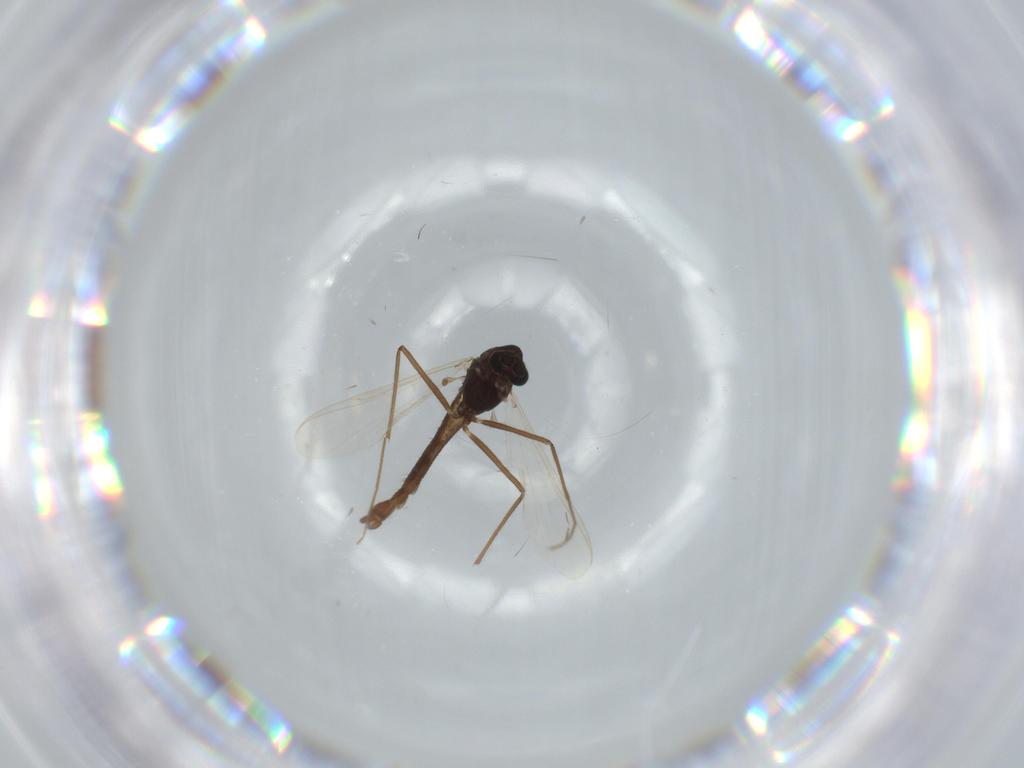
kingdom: Animalia
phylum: Arthropoda
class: Insecta
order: Diptera
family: Chironomidae
